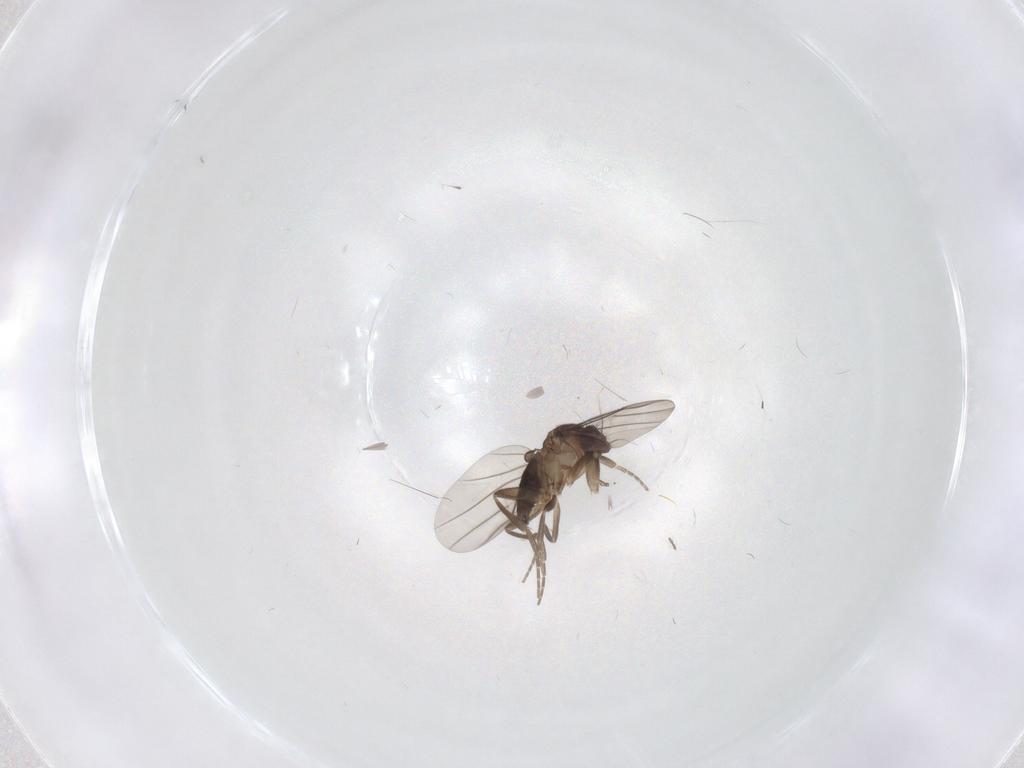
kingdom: Animalia
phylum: Arthropoda
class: Insecta
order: Diptera
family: Phoridae
